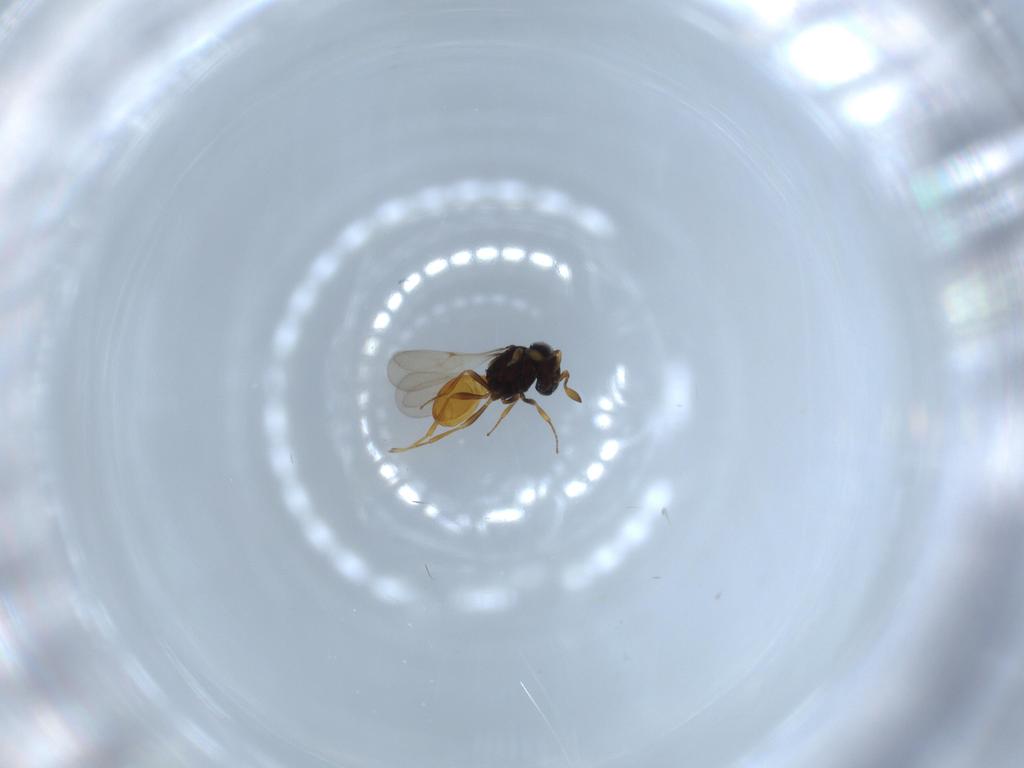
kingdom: Animalia
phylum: Arthropoda
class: Insecta
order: Hymenoptera
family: Scelionidae
